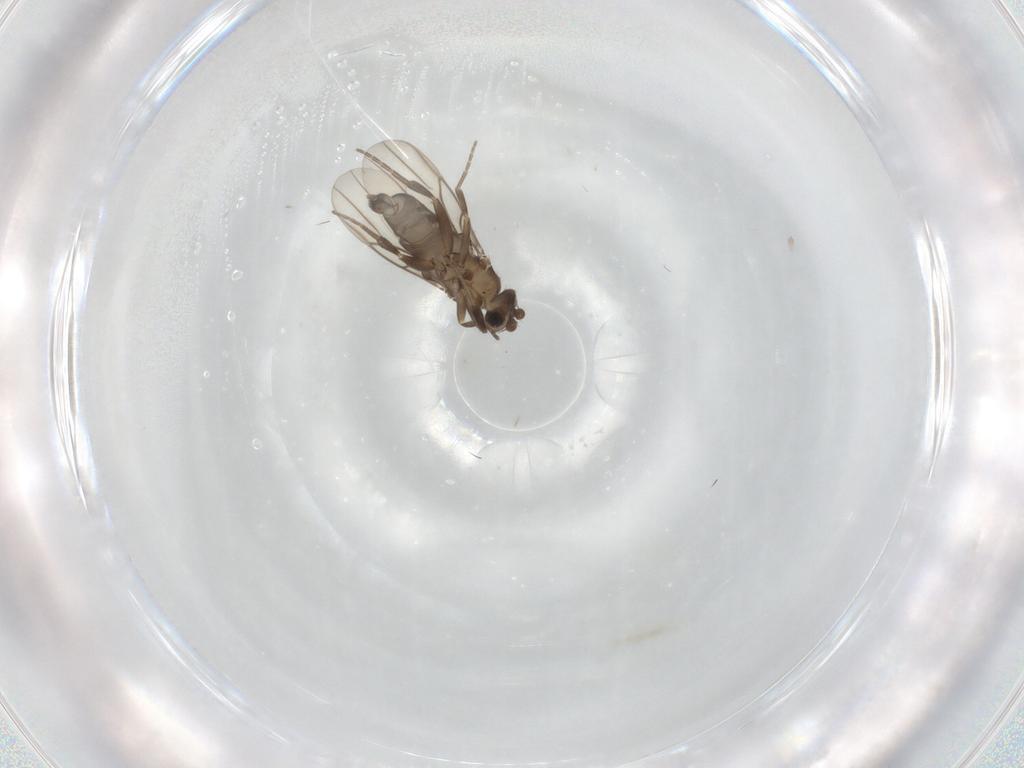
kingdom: Animalia
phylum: Arthropoda
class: Insecta
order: Diptera
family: Phoridae
